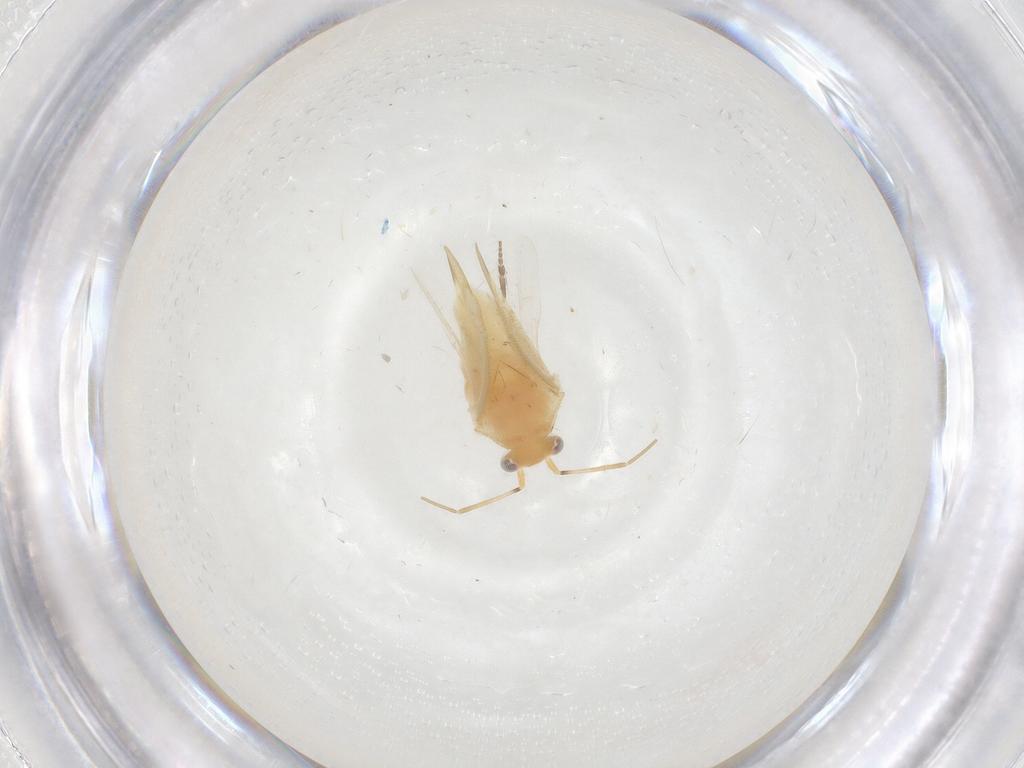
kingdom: Animalia
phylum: Arthropoda
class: Insecta
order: Hemiptera
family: Miridae
